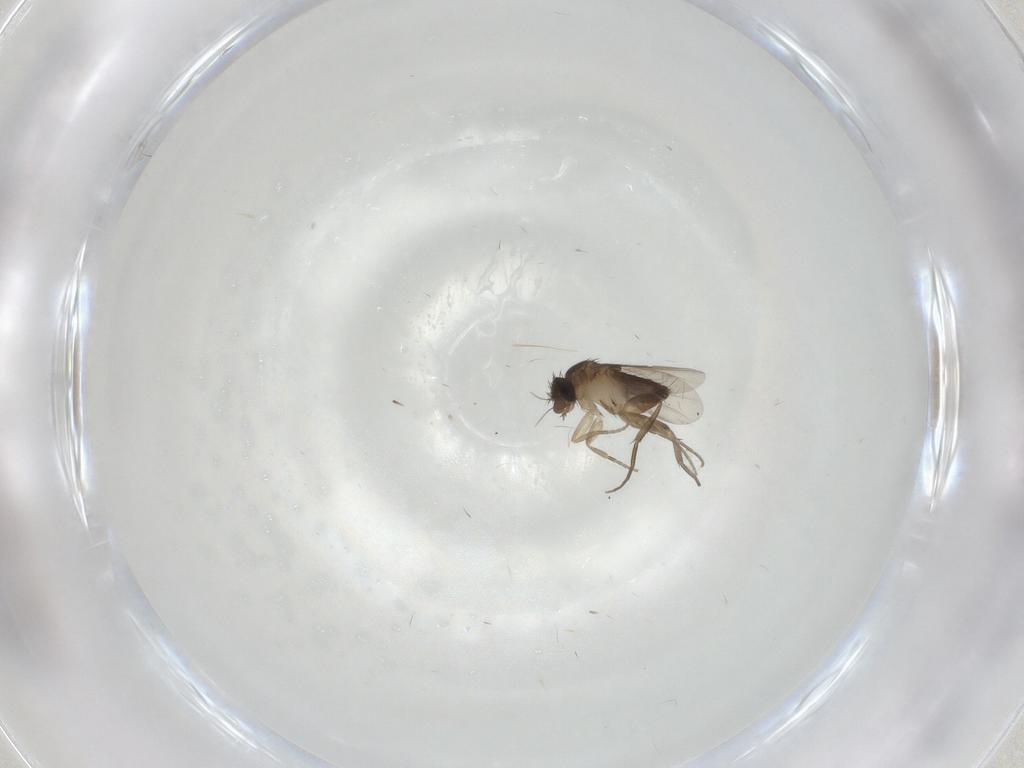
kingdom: Animalia
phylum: Arthropoda
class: Insecta
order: Diptera
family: Phoridae
